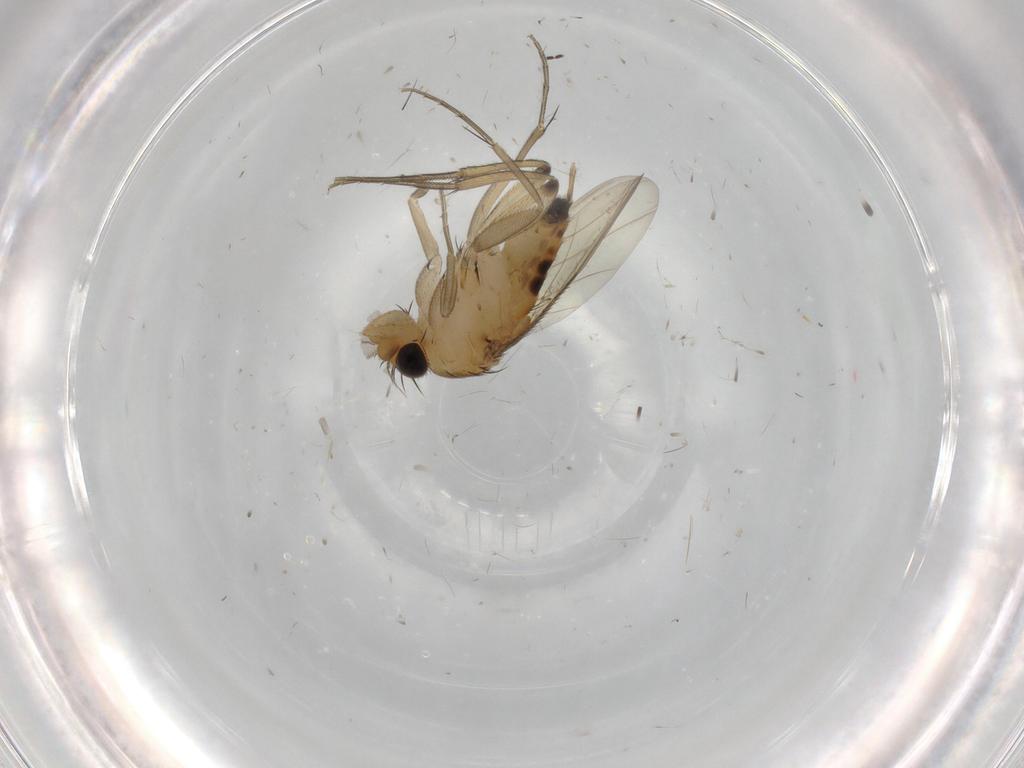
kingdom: Animalia
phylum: Arthropoda
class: Insecta
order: Diptera
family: Phoridae
